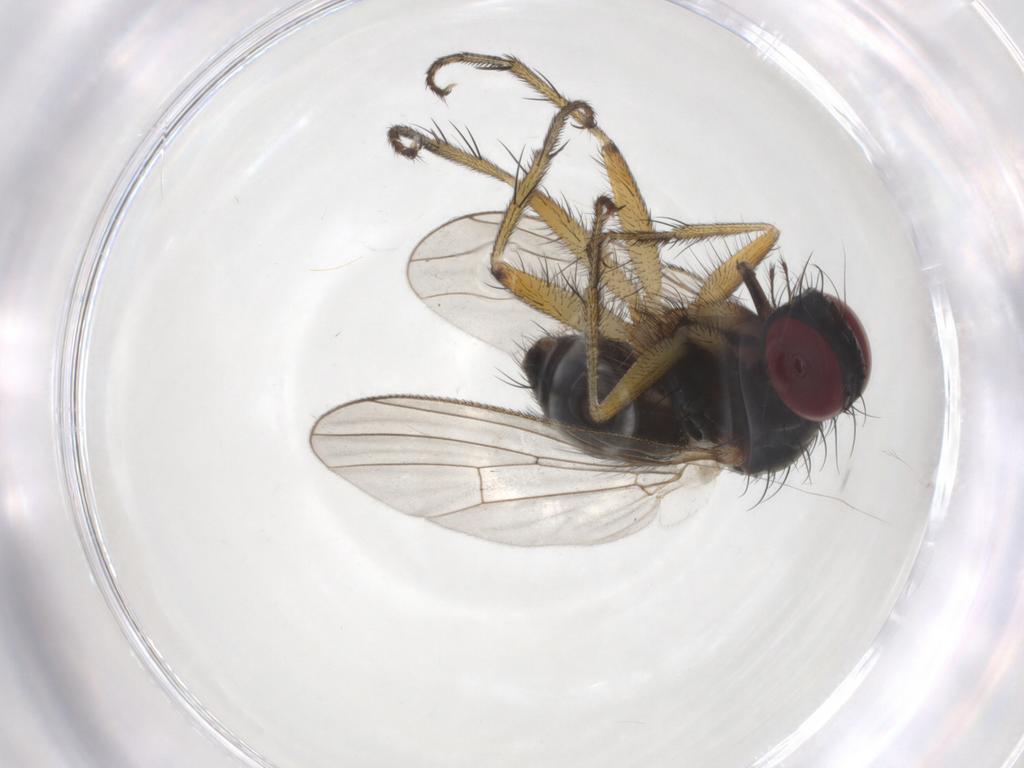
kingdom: Animalia
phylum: Arthropoda
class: Insecta
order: Diptera
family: Muscidae
